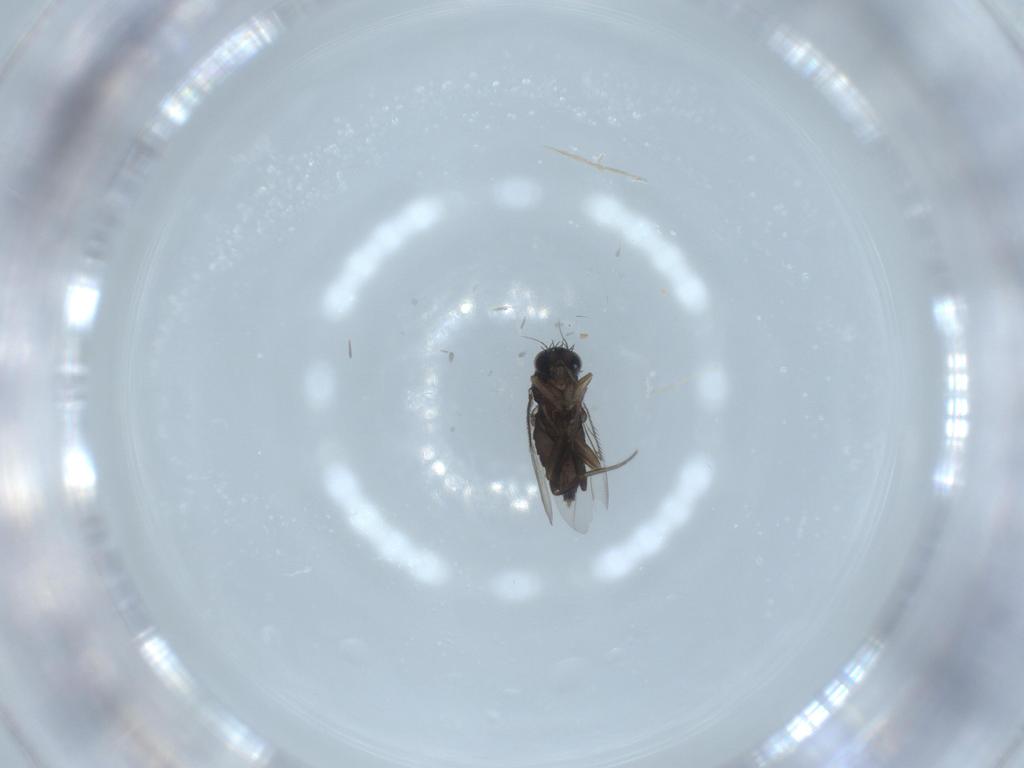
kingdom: Animalia
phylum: Arthropoda
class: Insecta
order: Diptera
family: Phoridae
